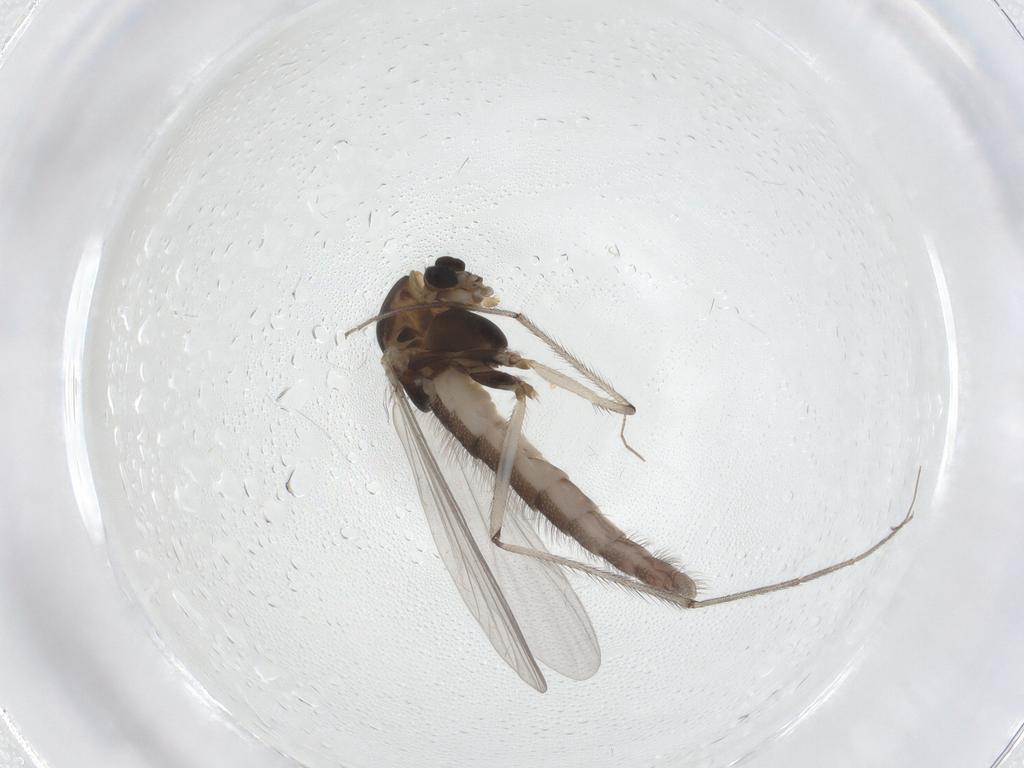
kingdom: Animalia
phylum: Arthropoda
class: Insecta
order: Diptera
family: Chironomidae
